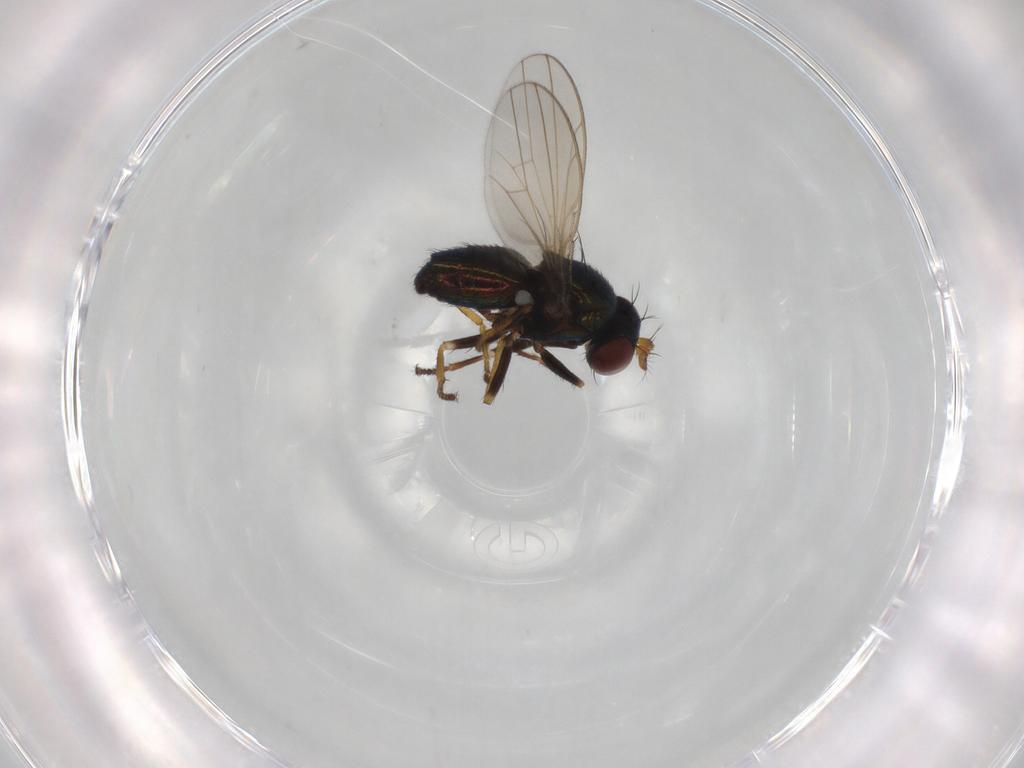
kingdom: Animalia
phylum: Arthropoda
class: Insecta
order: Diptera
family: Ephydridae
